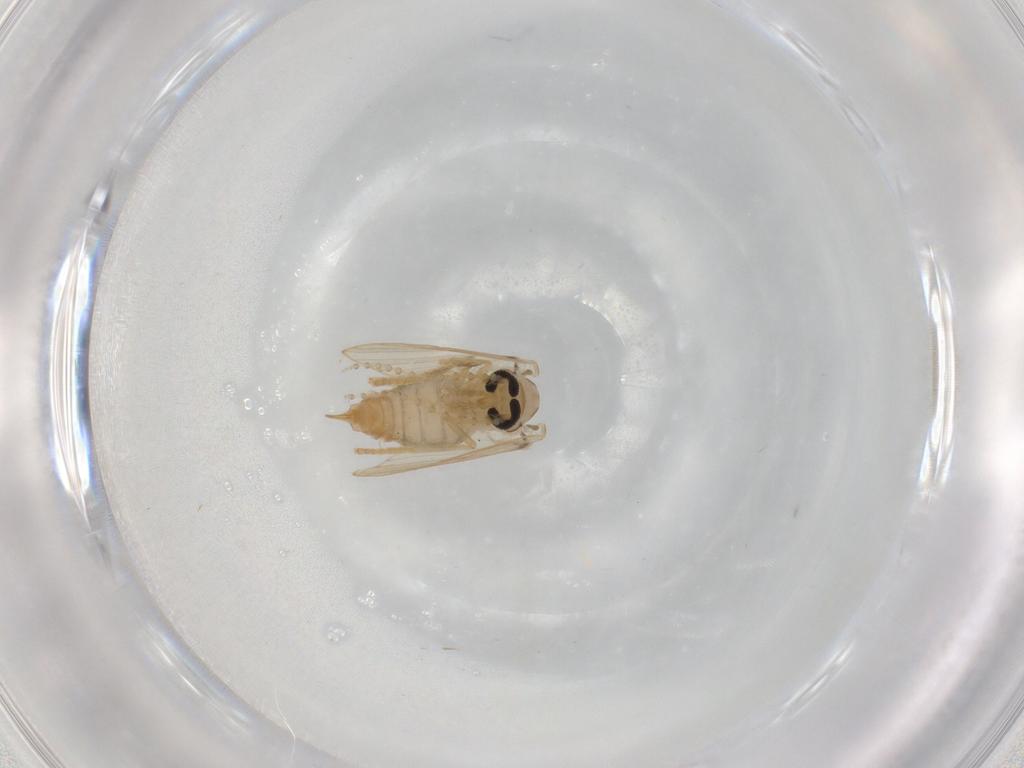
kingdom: Animalia
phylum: Arthropoda
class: Insecta
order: Diptera
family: Psychodidae
